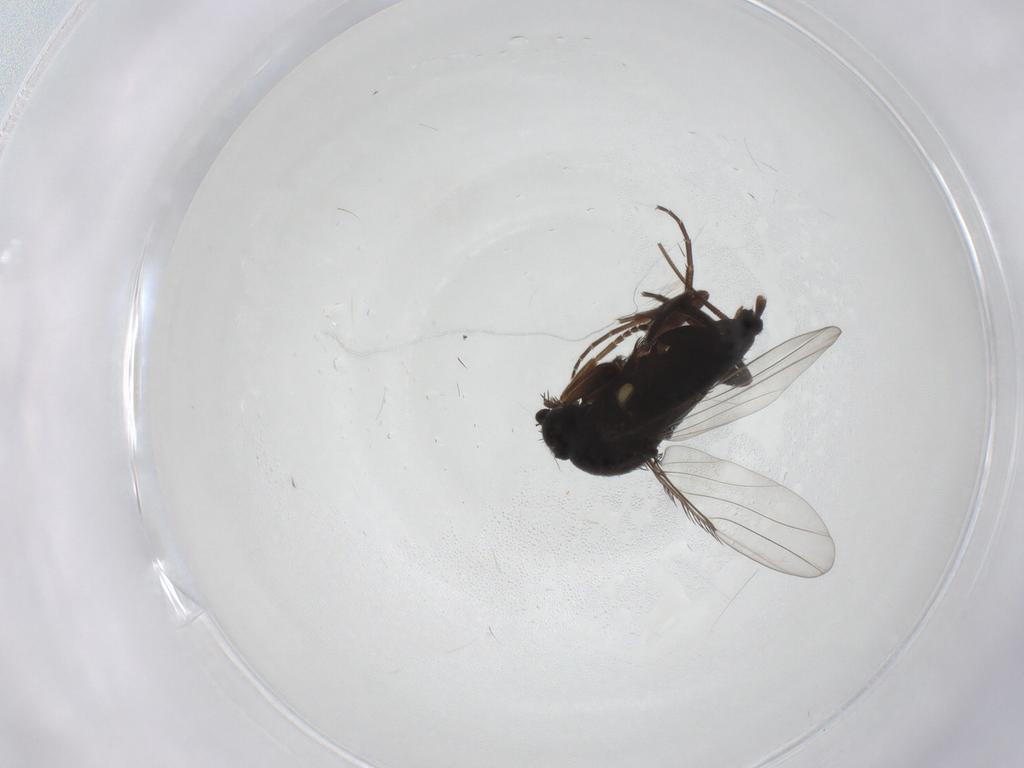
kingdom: Animalia
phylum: Arthropoda
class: Insecta
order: Diptera
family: Phoridae
